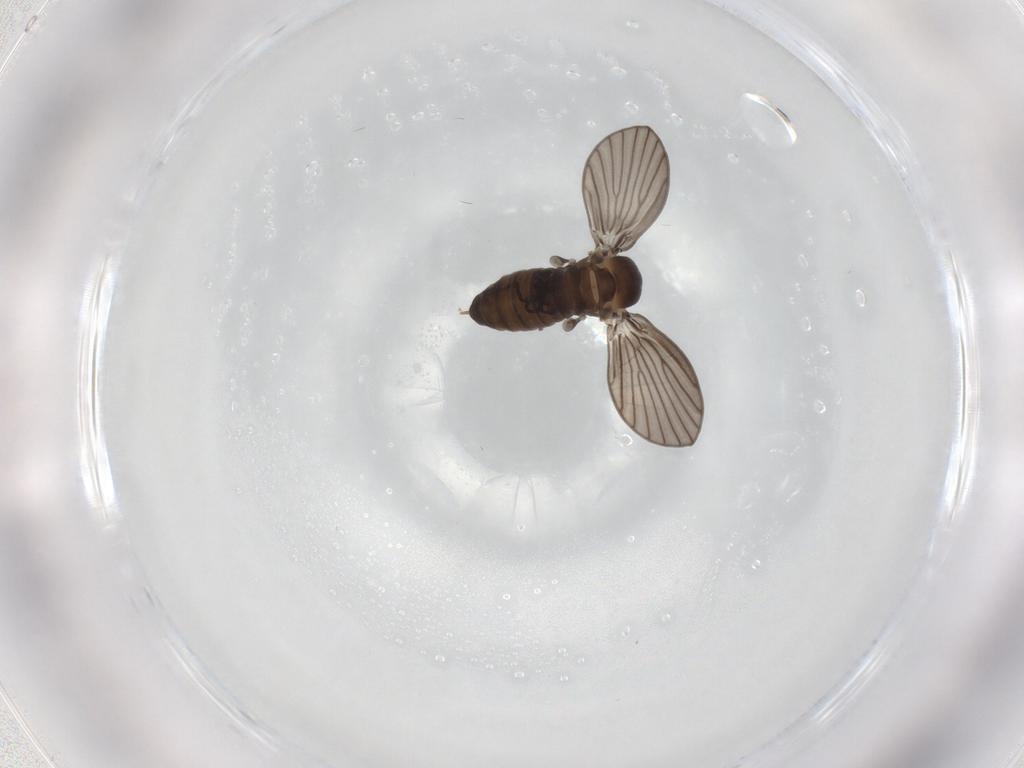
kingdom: Animalia
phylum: Arthropoda
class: Insecta
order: Diptera
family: Psychodidae
